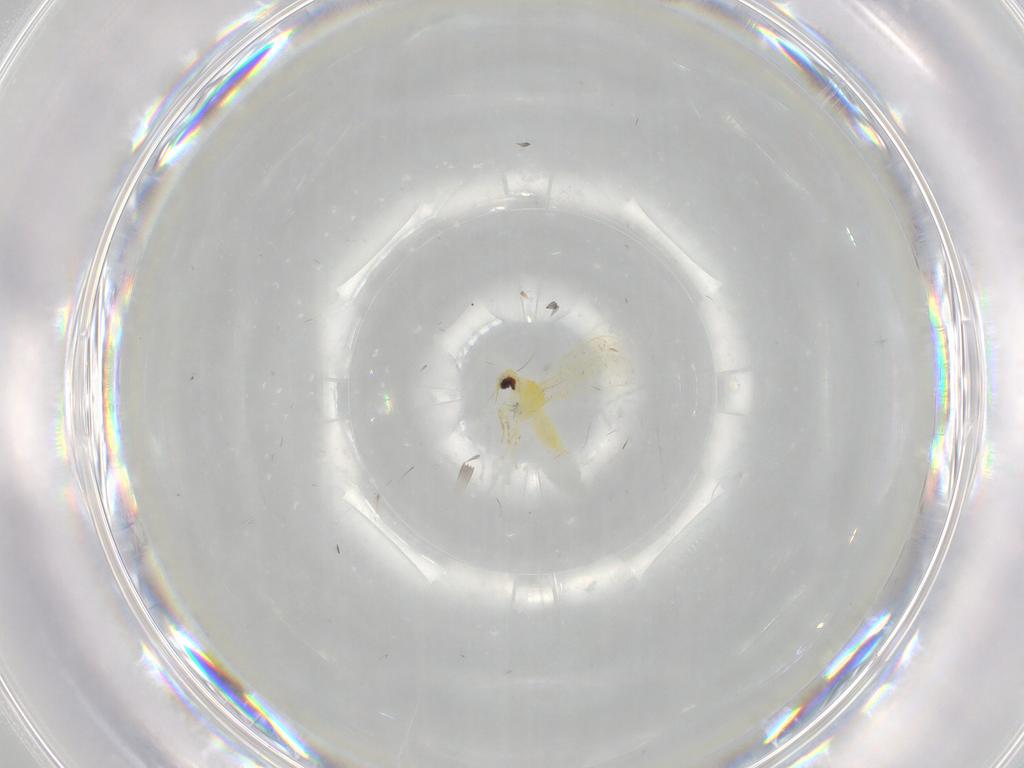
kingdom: Animalia
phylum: Arthropoda
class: Insecta
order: Hemiptera
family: Aleyrodidae
